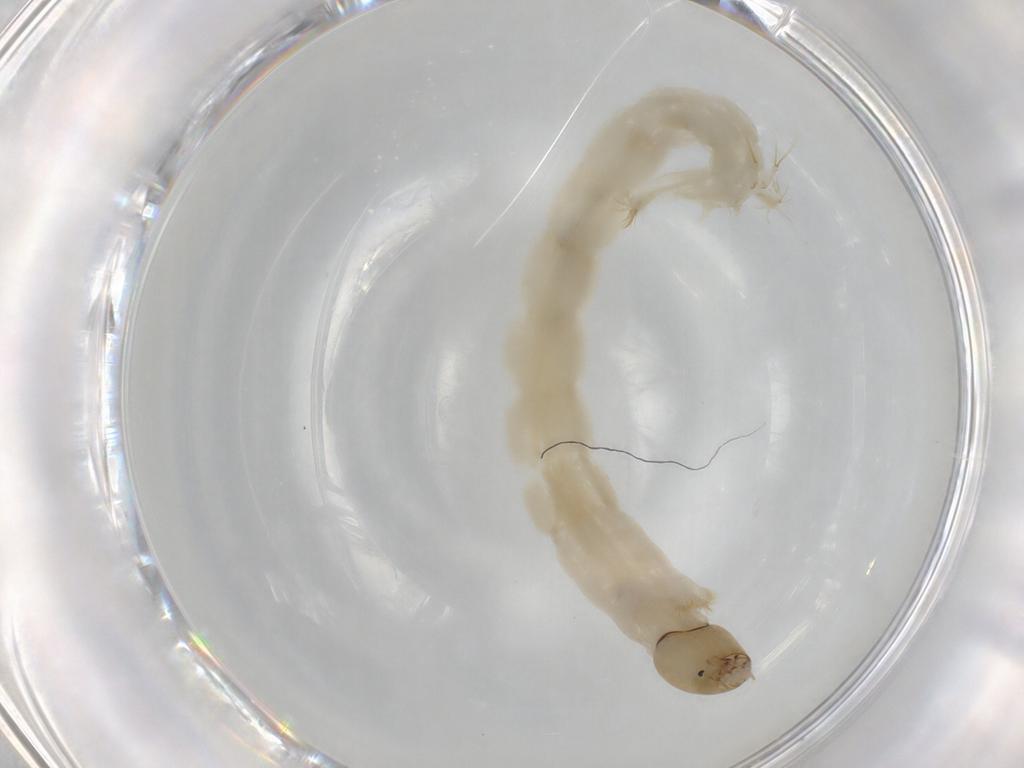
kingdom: Animalia
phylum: Arthropoda
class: Insecta
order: Diptera
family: Chironomidae
